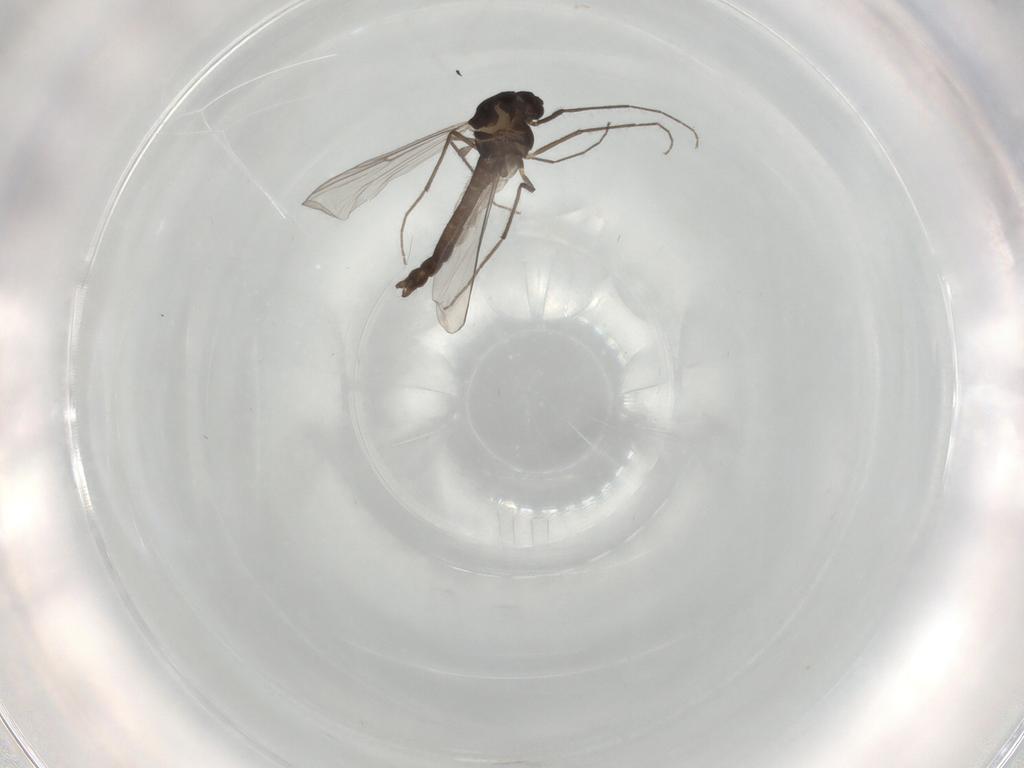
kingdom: Animalia
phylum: Arthropoda
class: Insecta
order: Diptera
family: Chironomidae
